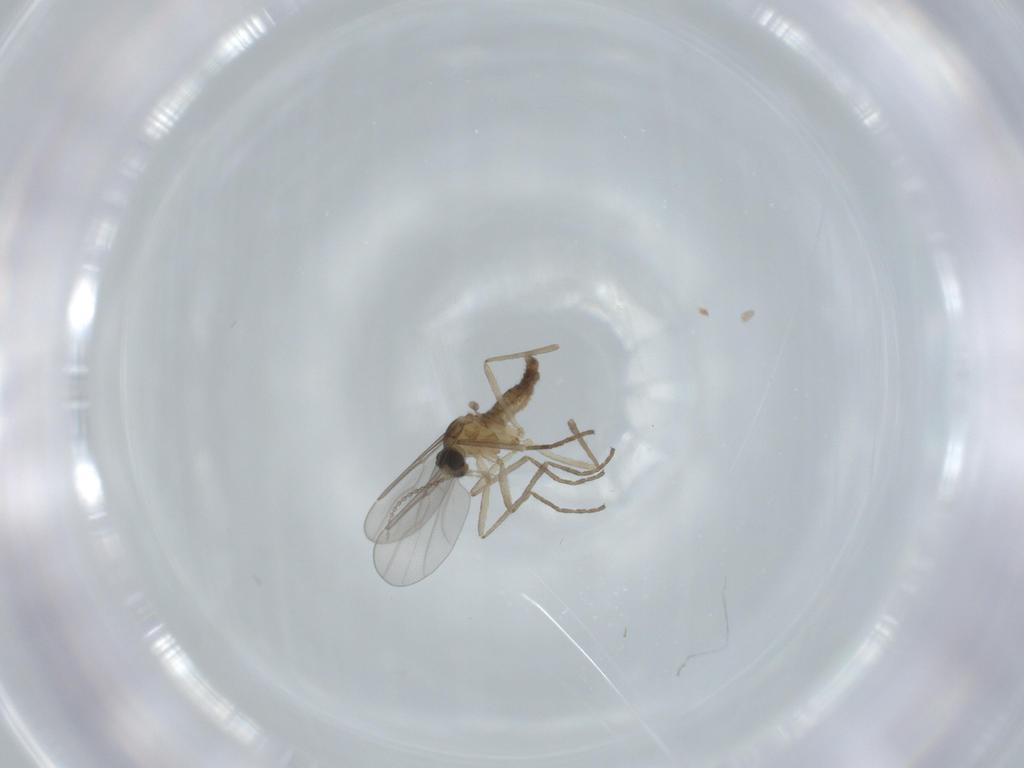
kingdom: Animalia
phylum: Arthropoda
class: Insecta
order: Diptera
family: Cecidomyiidae
